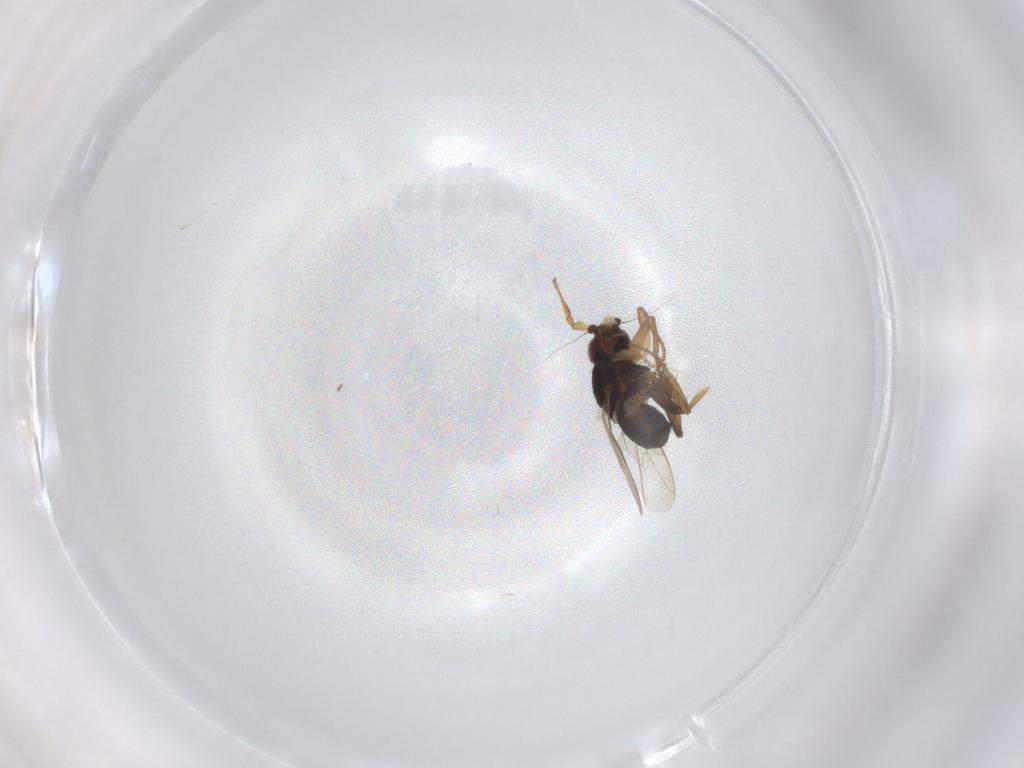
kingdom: Animalia
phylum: Arthropoda
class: Insecta
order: Diptera
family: Sphaeroceridae
